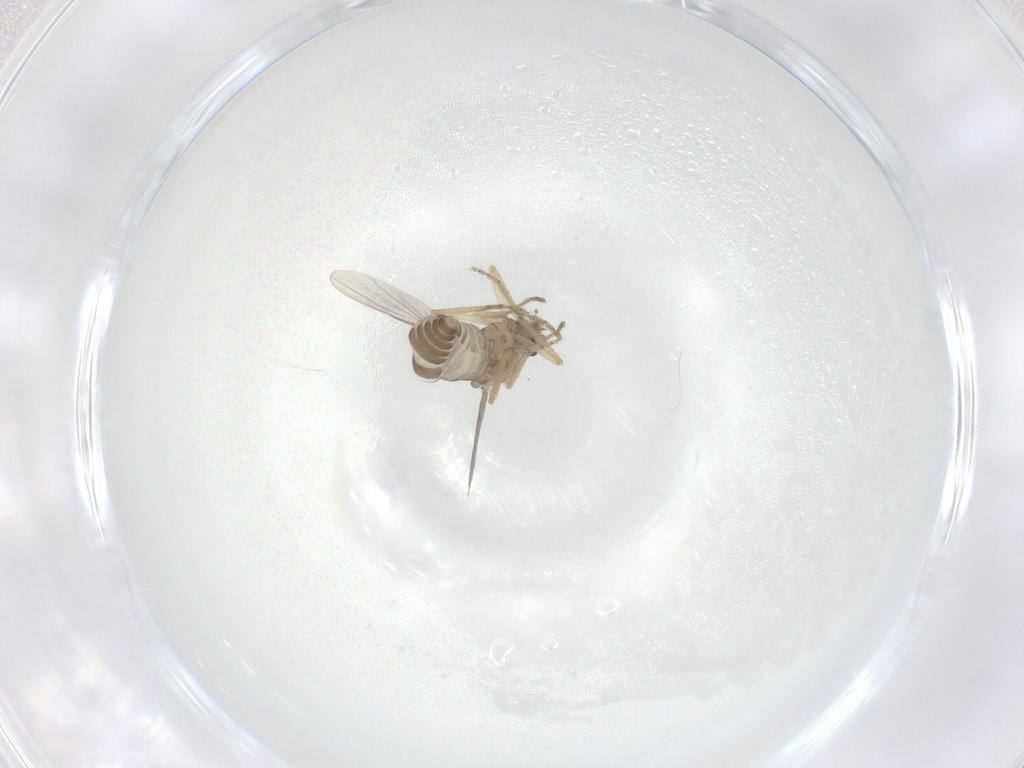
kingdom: Animalia
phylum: Arthropoda
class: Insecta
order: Diptera
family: Ceratopogonidae
